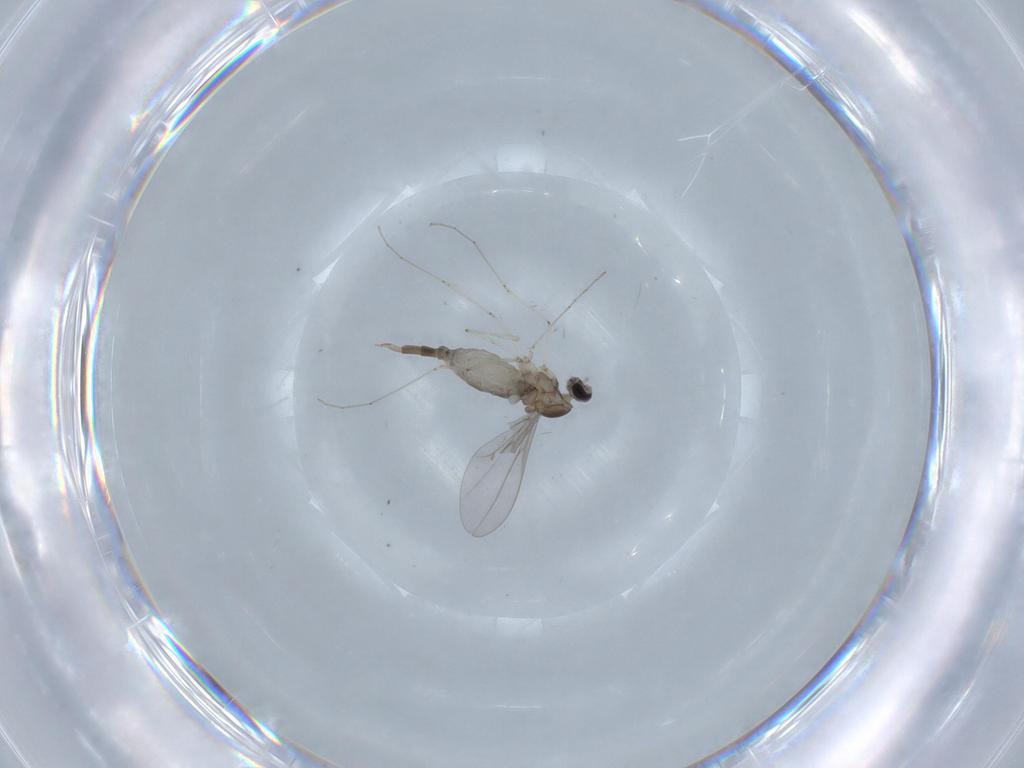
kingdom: Animalia
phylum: Arthropoda
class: Insecta
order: Diptera
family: Cecidomyiidae
